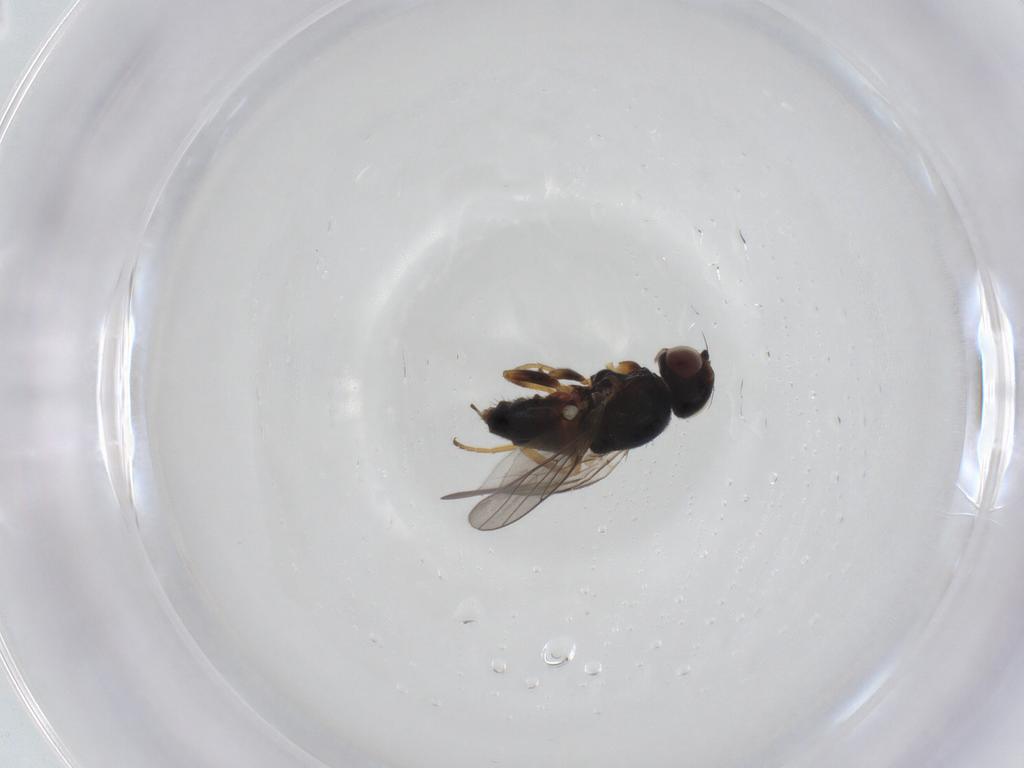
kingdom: Animalia
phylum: Arthropoda
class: Insecta
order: Diptera
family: Chloropidae
